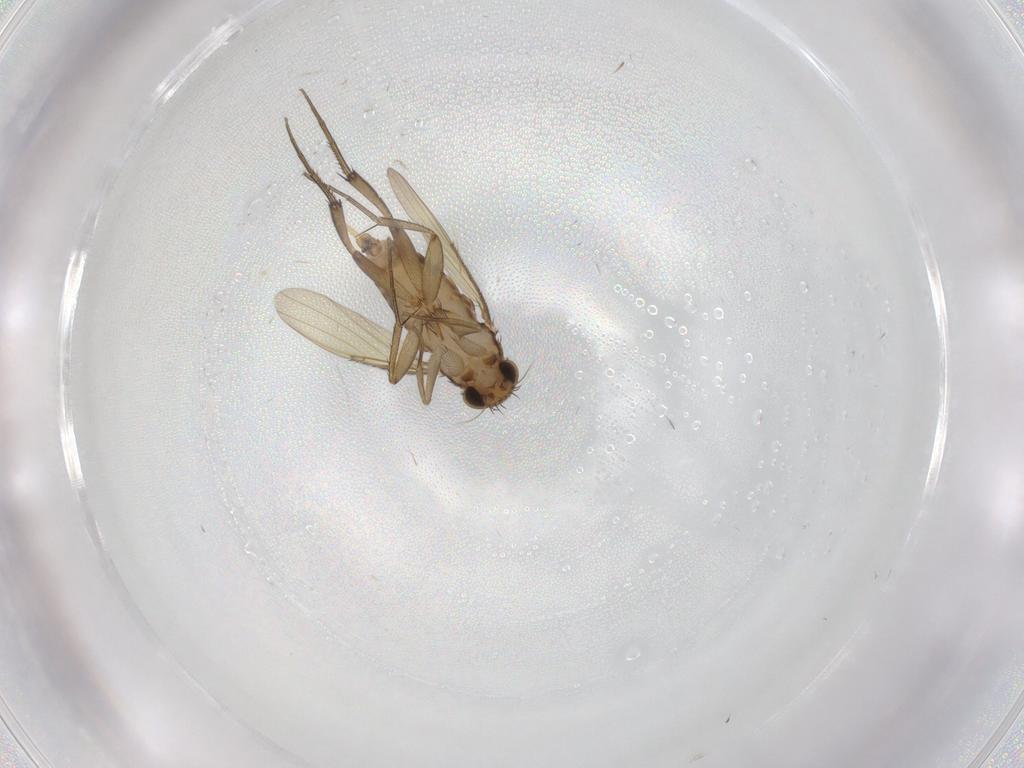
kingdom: Animalia
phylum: Arthropoda
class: Insecta
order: Diptera
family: Phoridae
